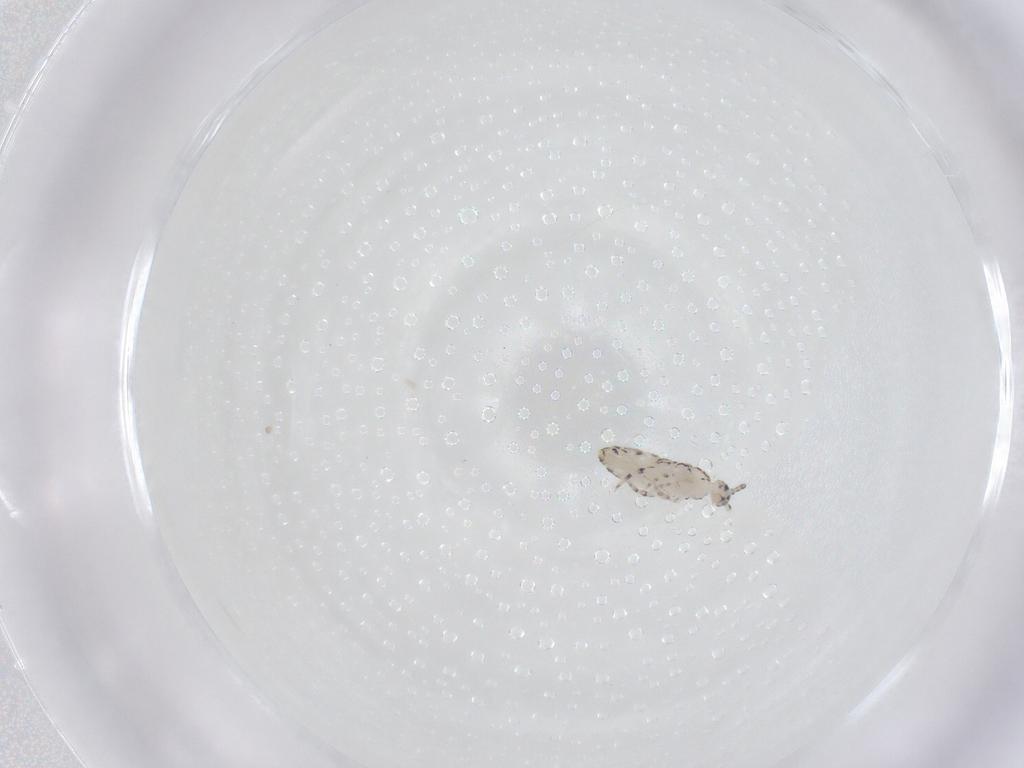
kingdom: Animalia
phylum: Arthropoda
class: Collembola
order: Entomobryomorpha
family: Entomobryidae
